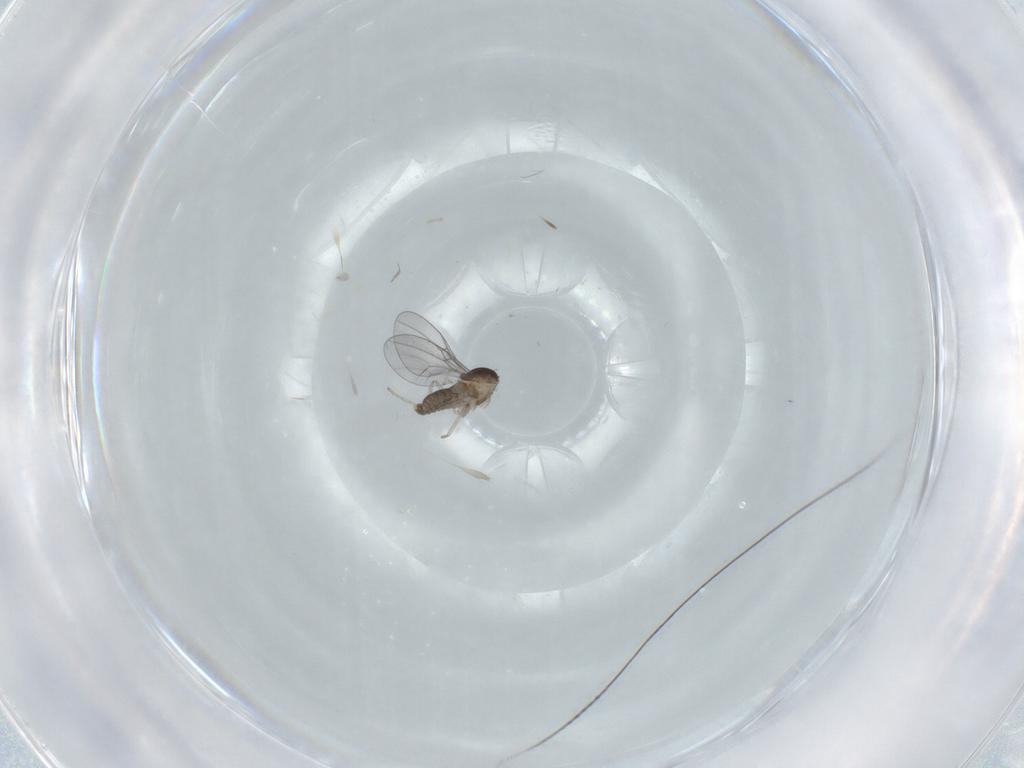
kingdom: Animalia
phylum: Arthropoda
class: Insecta
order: Diptera
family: Cecidomyiidae
